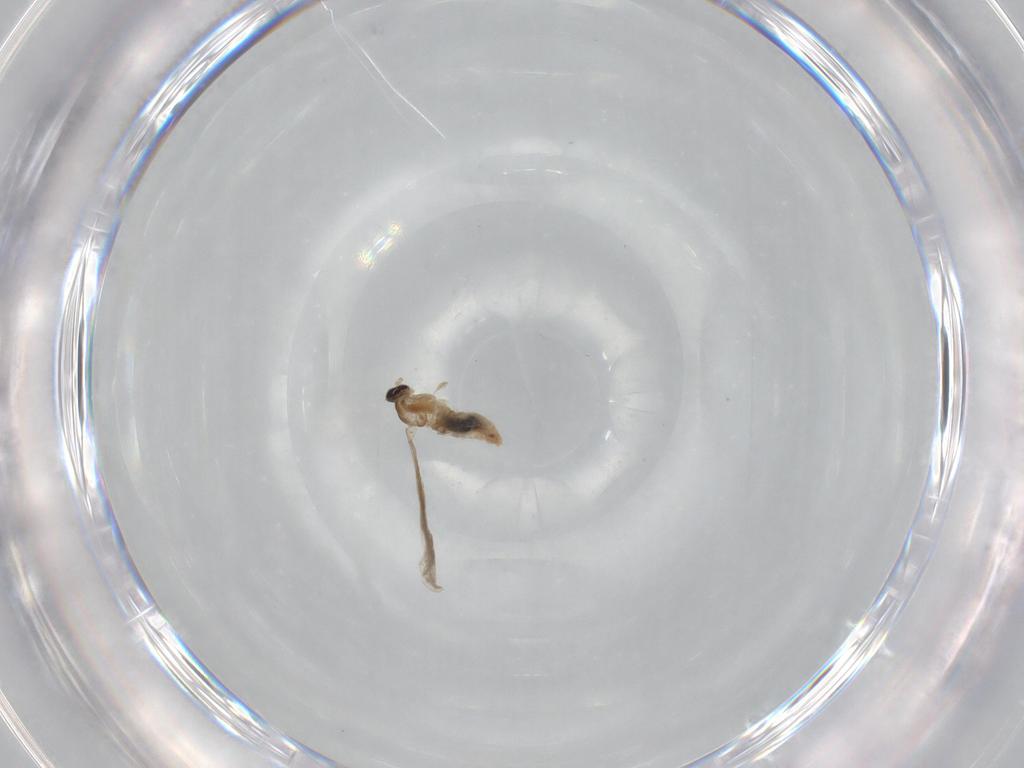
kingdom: Animalia
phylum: Arthropoda
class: Insecta
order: Diptera
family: Cecidomyiidae
